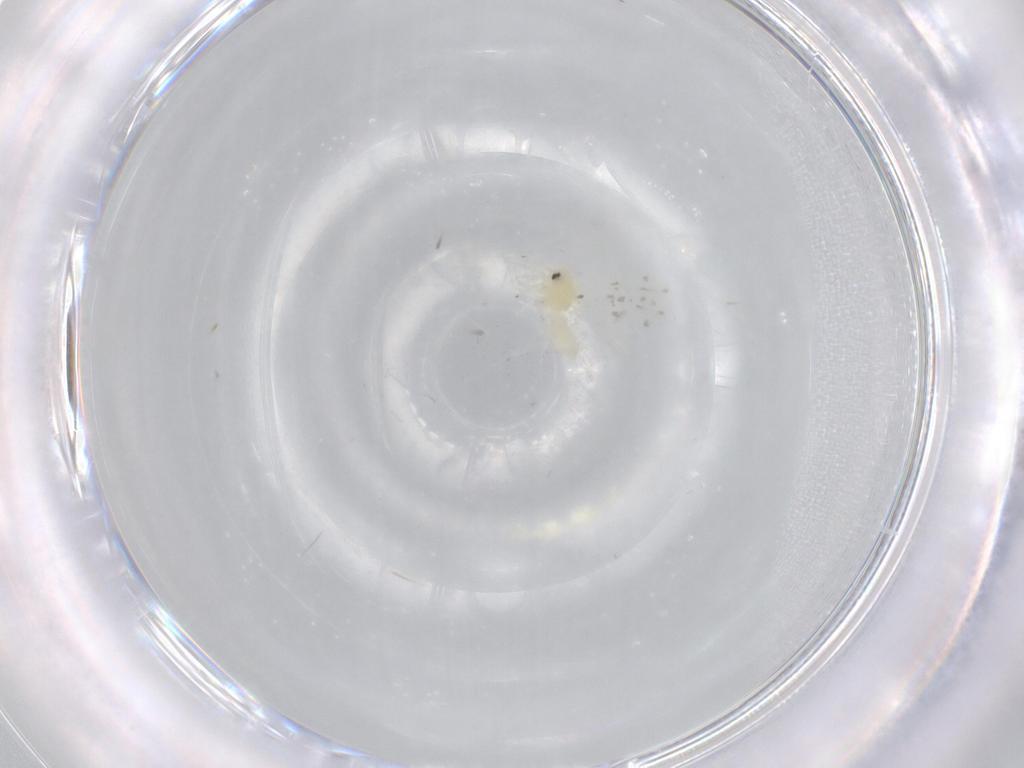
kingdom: Animalia
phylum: Arthropoda
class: Insecta
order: Hemiptera
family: Aleyrodidae
